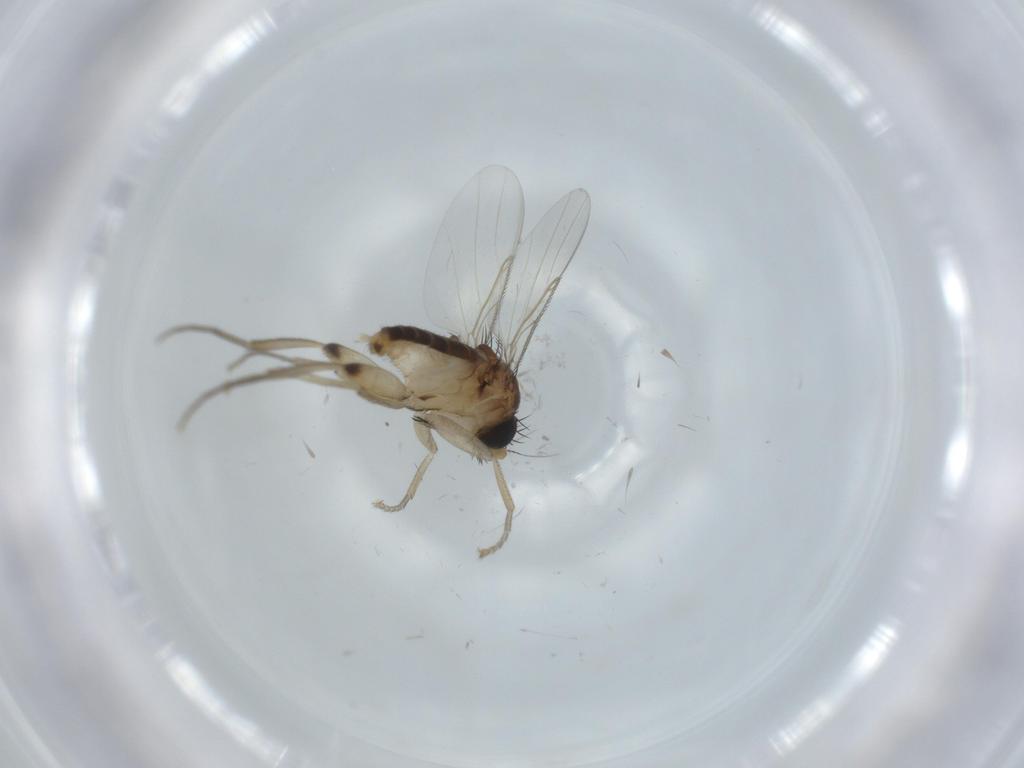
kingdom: Animalia
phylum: Arthropoda
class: Insecta
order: Diptera
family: Phoridae
